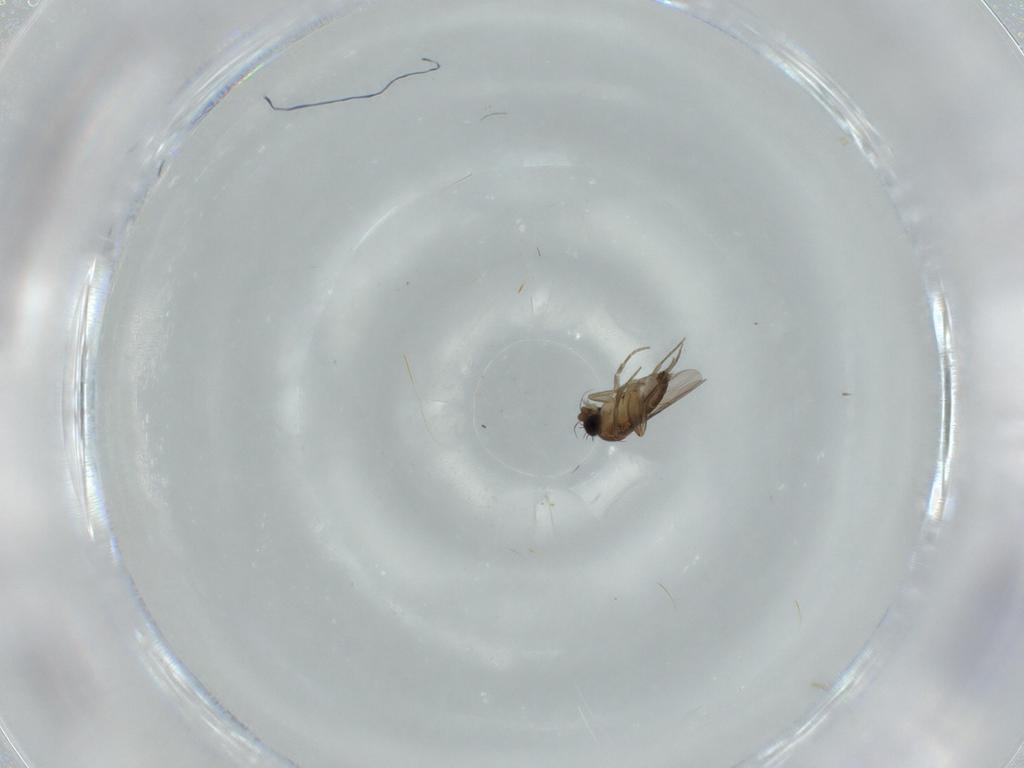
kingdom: Animalia
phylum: Arthropoda
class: Insecta
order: Diptera
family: Phoridae
